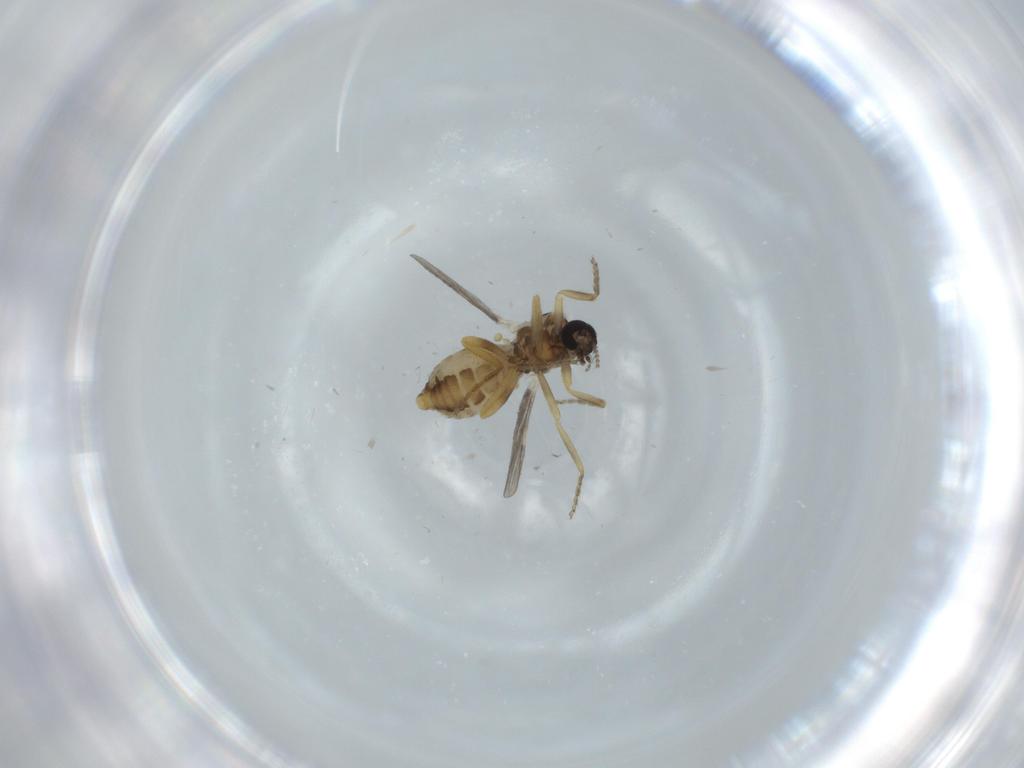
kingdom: Animalia
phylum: Arthropoda
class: Insecta
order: Diptera
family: Ceratopogonidae
